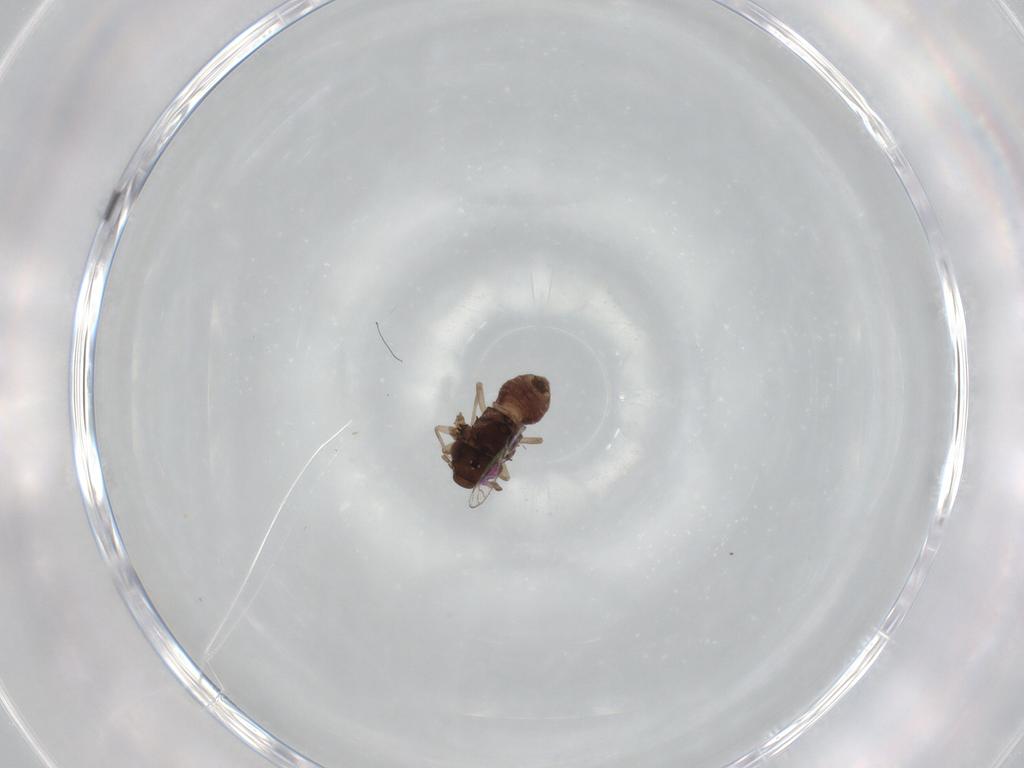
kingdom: Animalia
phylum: Arthropoda
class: Insecta
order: Psocodea
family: Psoquillidae
